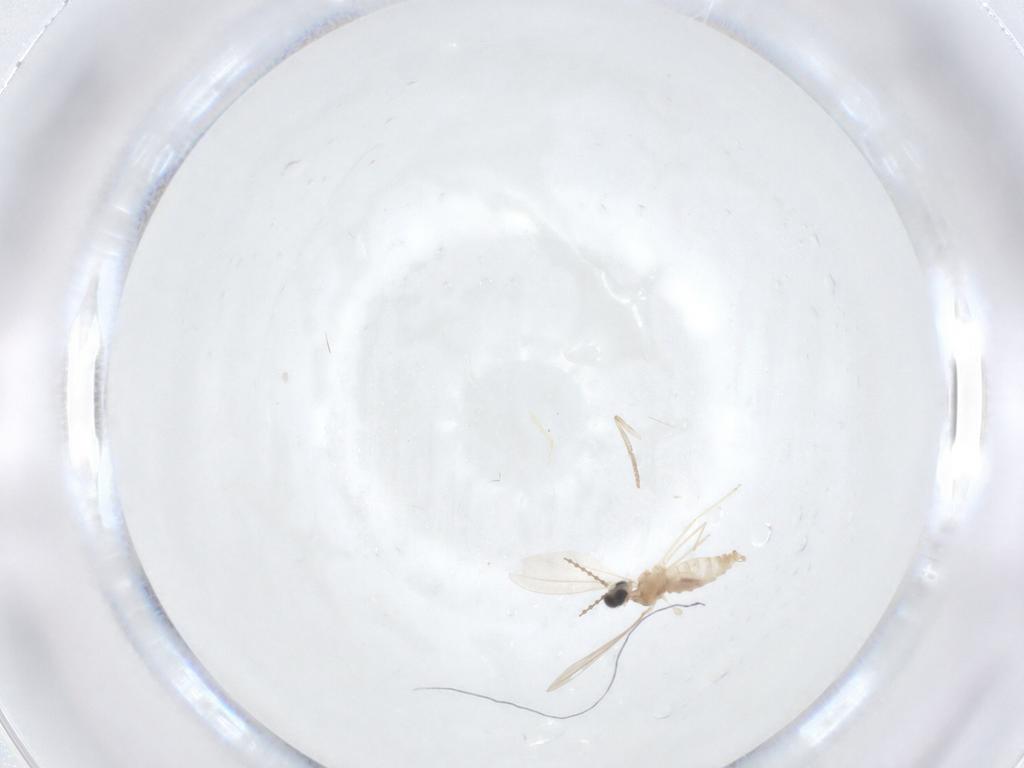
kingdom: Animalia
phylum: Arthropoda
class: Insecta
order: Diptera
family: Cecidomyiidae
